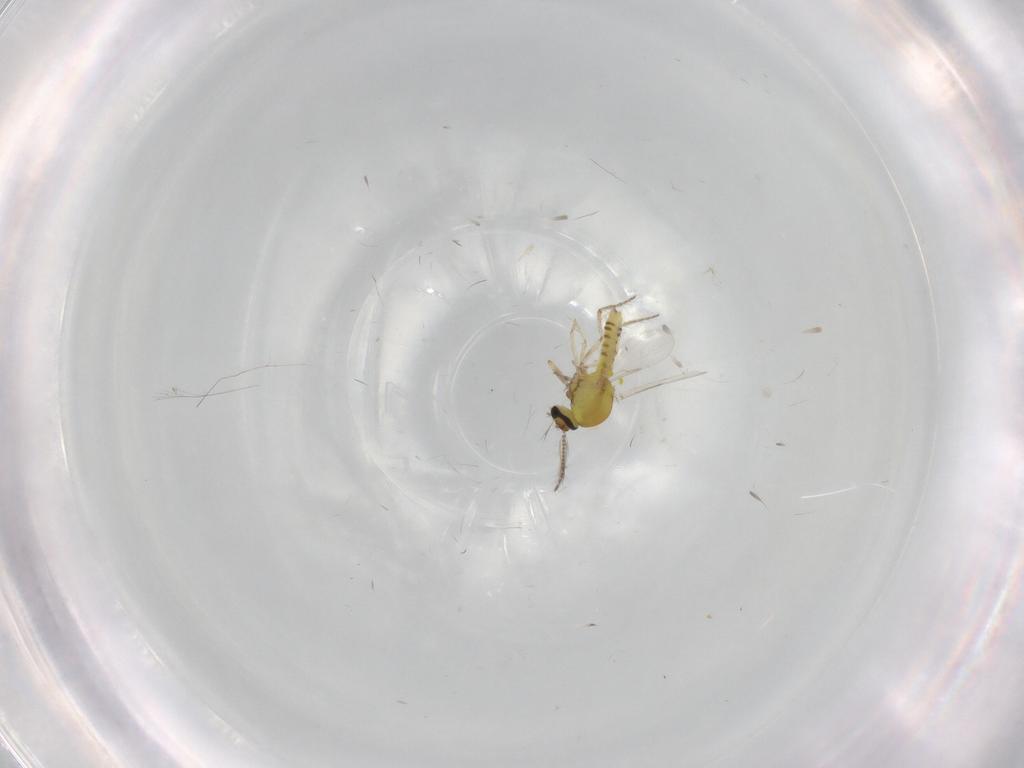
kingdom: Animalia
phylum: Arthropoda
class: Insecta
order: Diptera
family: Ceratopogonidae
